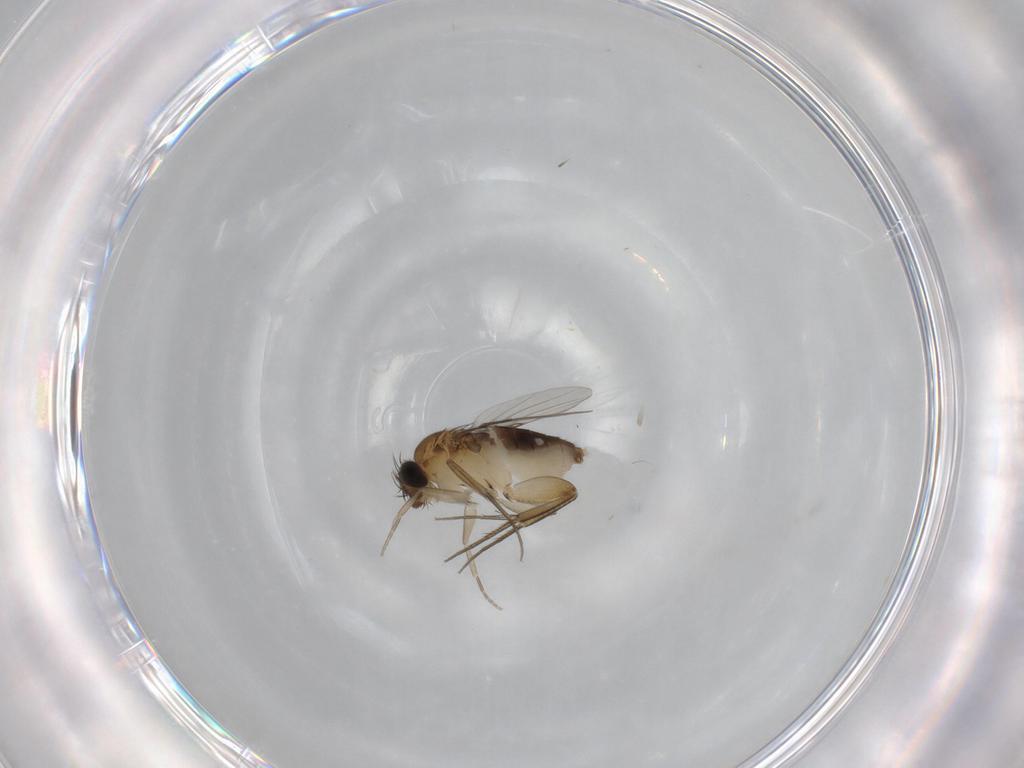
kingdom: Animalia
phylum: Arthropoda
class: Insecta
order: Diptera
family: Phoridae
